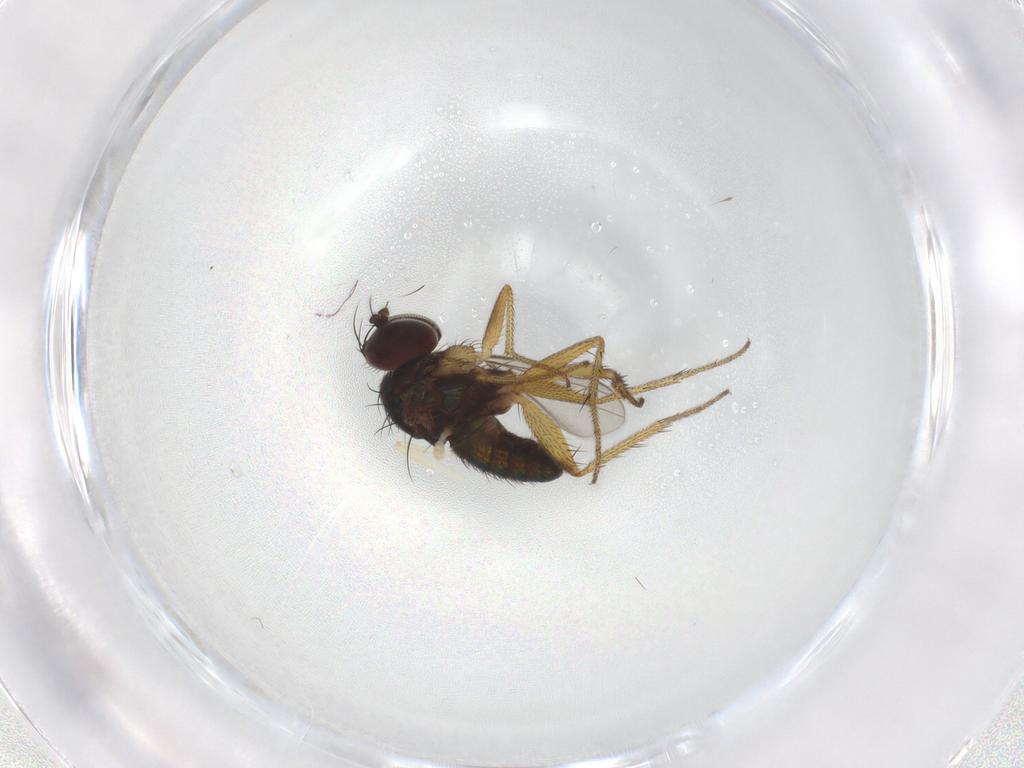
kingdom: Animalia
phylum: Arthropoda
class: Insecta
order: Diptera
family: Dolichopodidae
